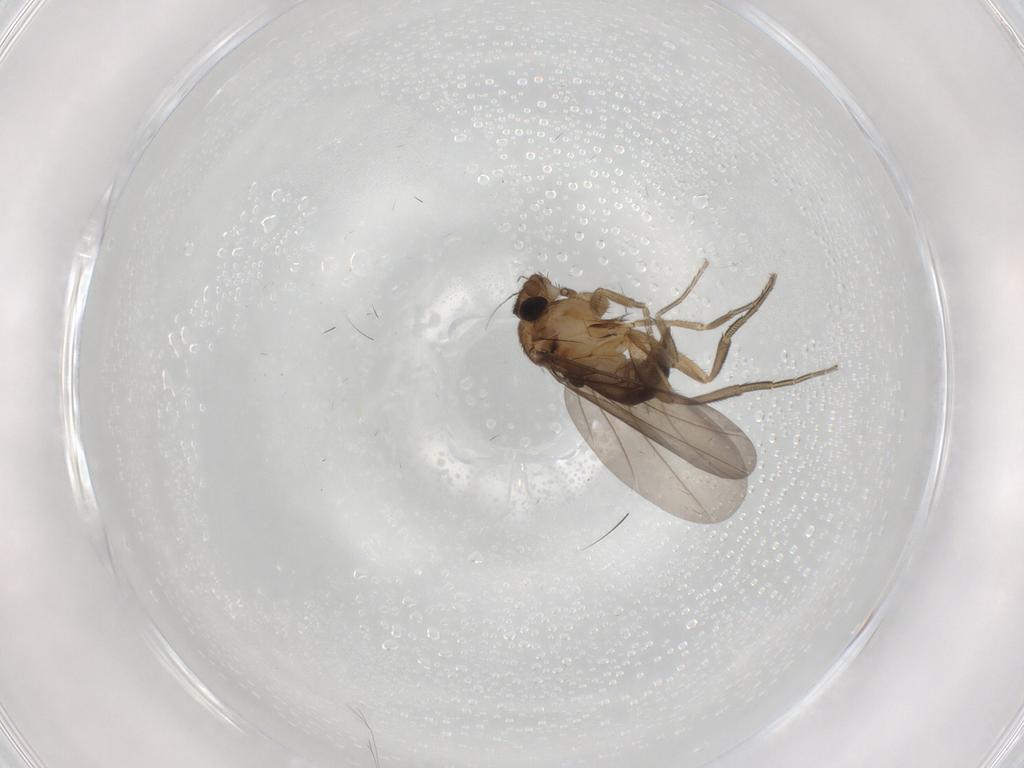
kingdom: Animalia
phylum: Arthropoda
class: Insecta
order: Diptera
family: Phoridae
